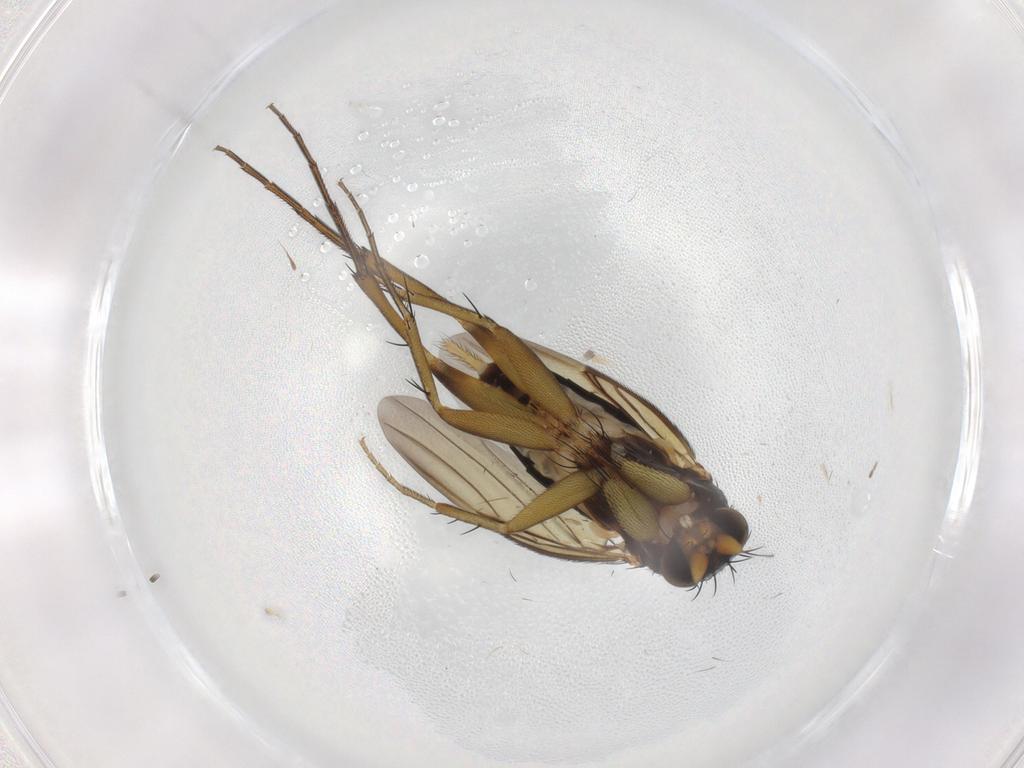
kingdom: Animalia
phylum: Arthropoda
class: Insecta
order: Diptera
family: Phoridae
